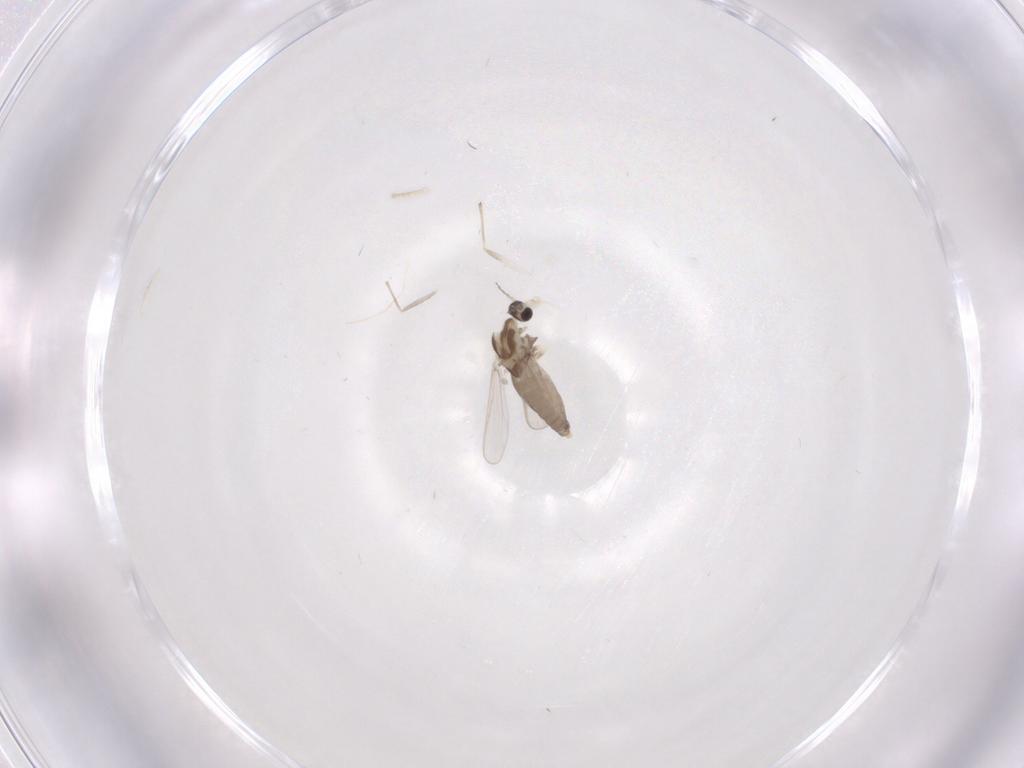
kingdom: Animalia
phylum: Arthropoda
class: Insecta
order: Diptera
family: Chironomidae
